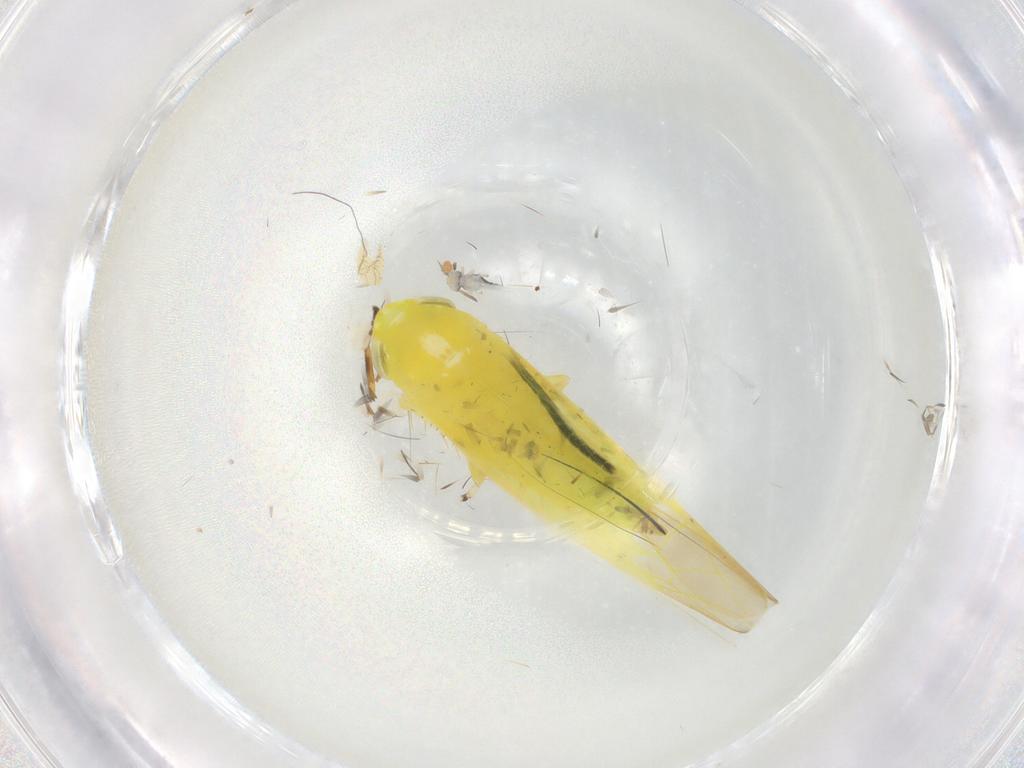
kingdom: Animalia
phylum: Arthropoda
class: Insecta
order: Hemiptera
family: Cicadellidae
